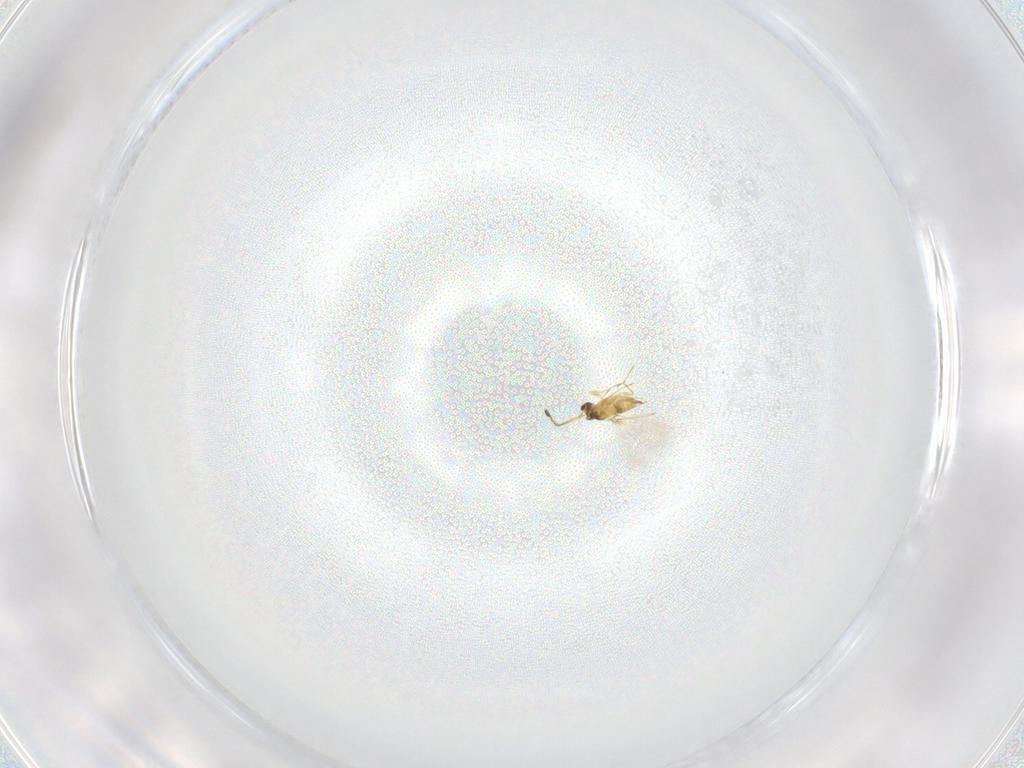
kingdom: Animalia
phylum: Arthropoda
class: Insecta
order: Hymenoptera
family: Mymaridae
